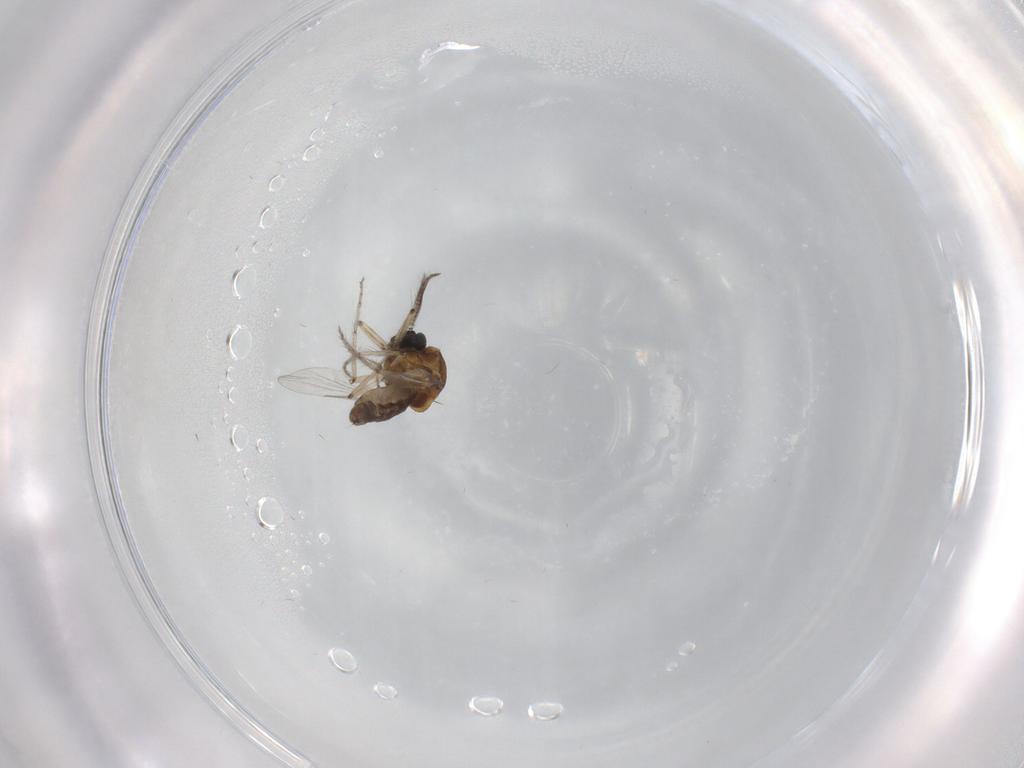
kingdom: Animalia
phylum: Arthropoda
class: Insecta
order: Diptera
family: Ceratopogonidae
